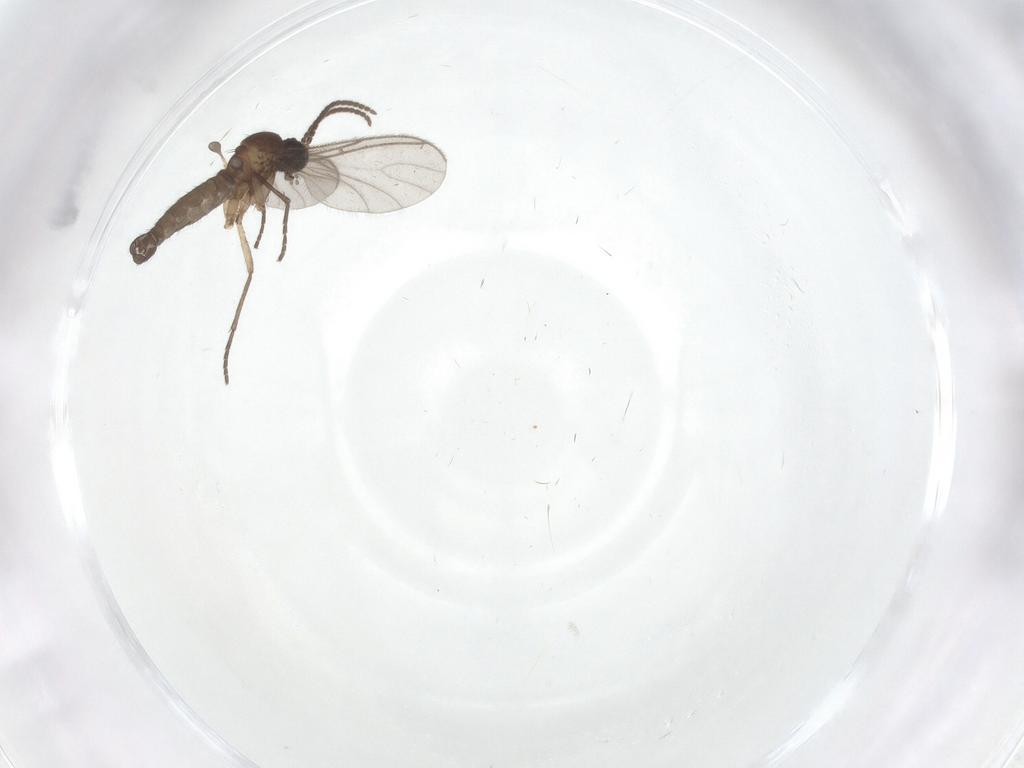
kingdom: Animalia
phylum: Arthropoda
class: Insecta
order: Diptera
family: Sciaridae
